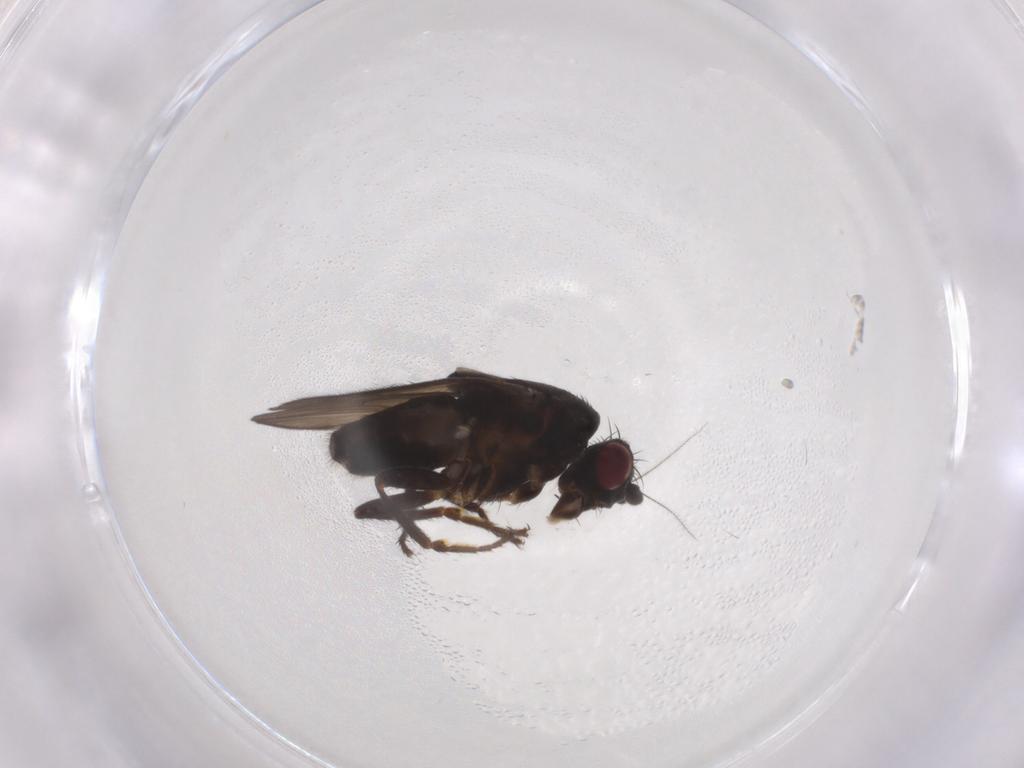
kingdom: Animalia
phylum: Arthropoda
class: Insecta
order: Diptera
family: Sphaeroceridae
